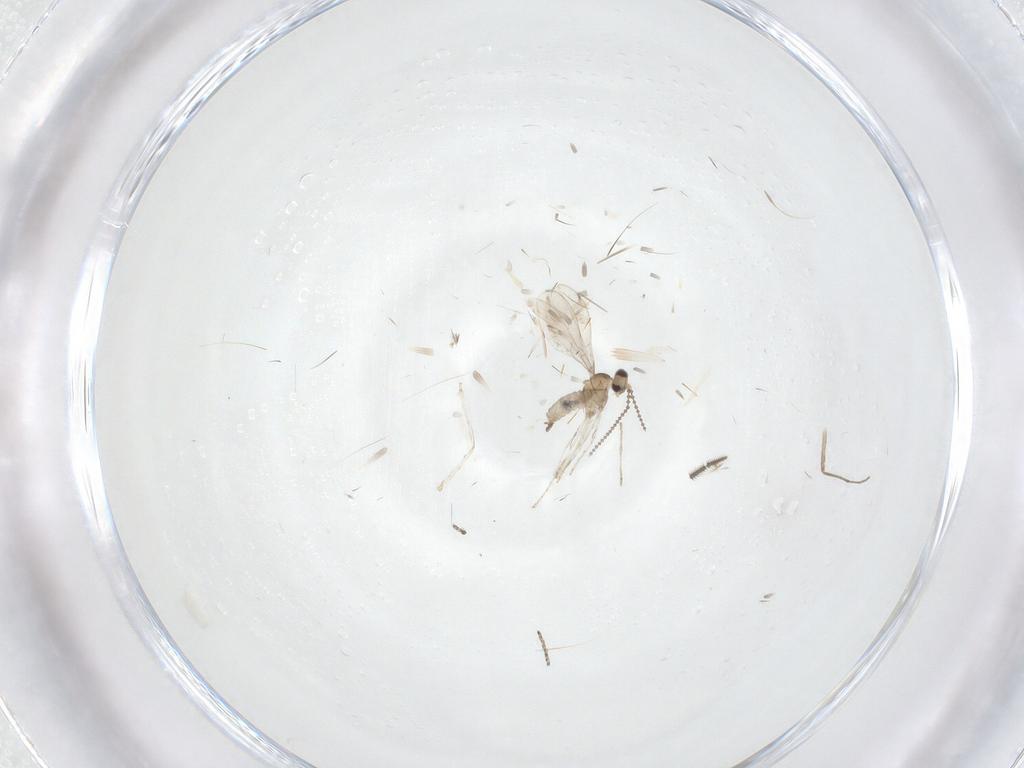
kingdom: Animalia
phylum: Arthropoda
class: Insecta
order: Diptera
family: Cecidomyiidae
